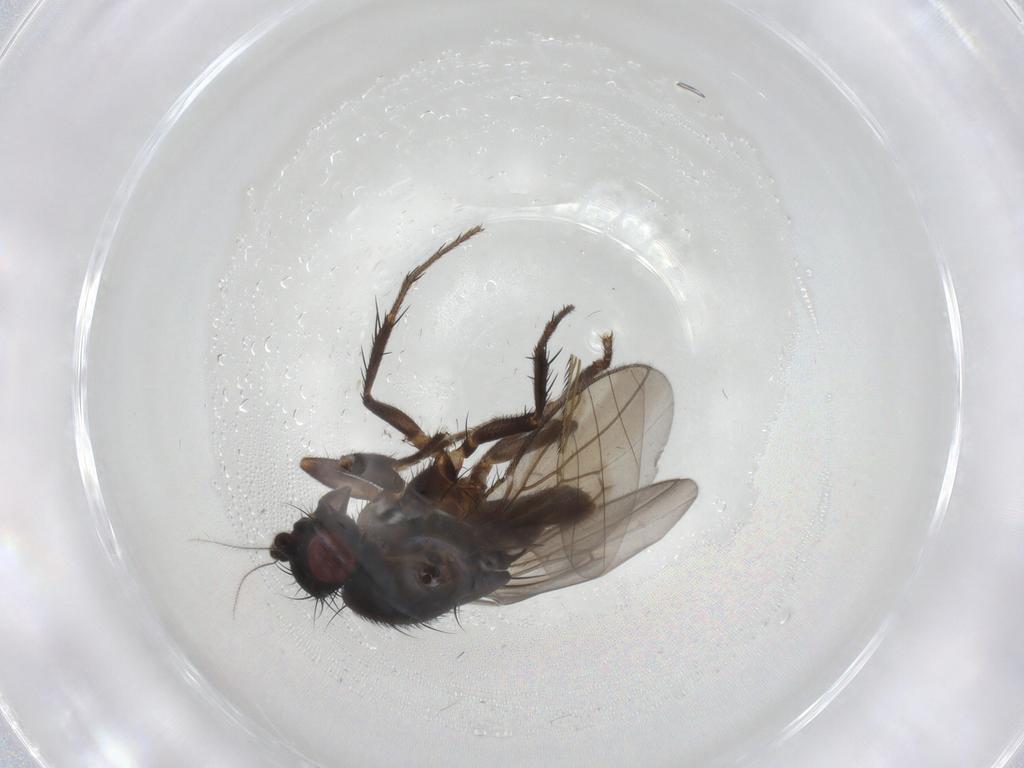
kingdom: Animalia
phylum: Arthropoda
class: Insecta
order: Diptera
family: Sphaeroceridae
